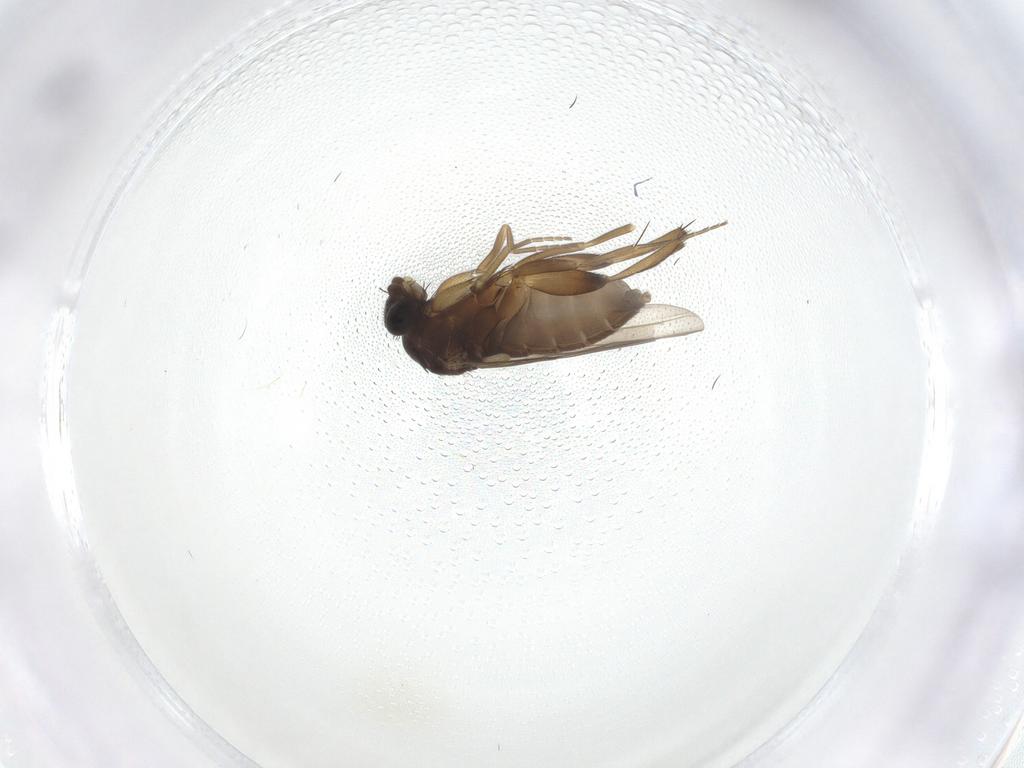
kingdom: Animalia
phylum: Arthropoda
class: Insecta
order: Diptera
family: Phoridae
